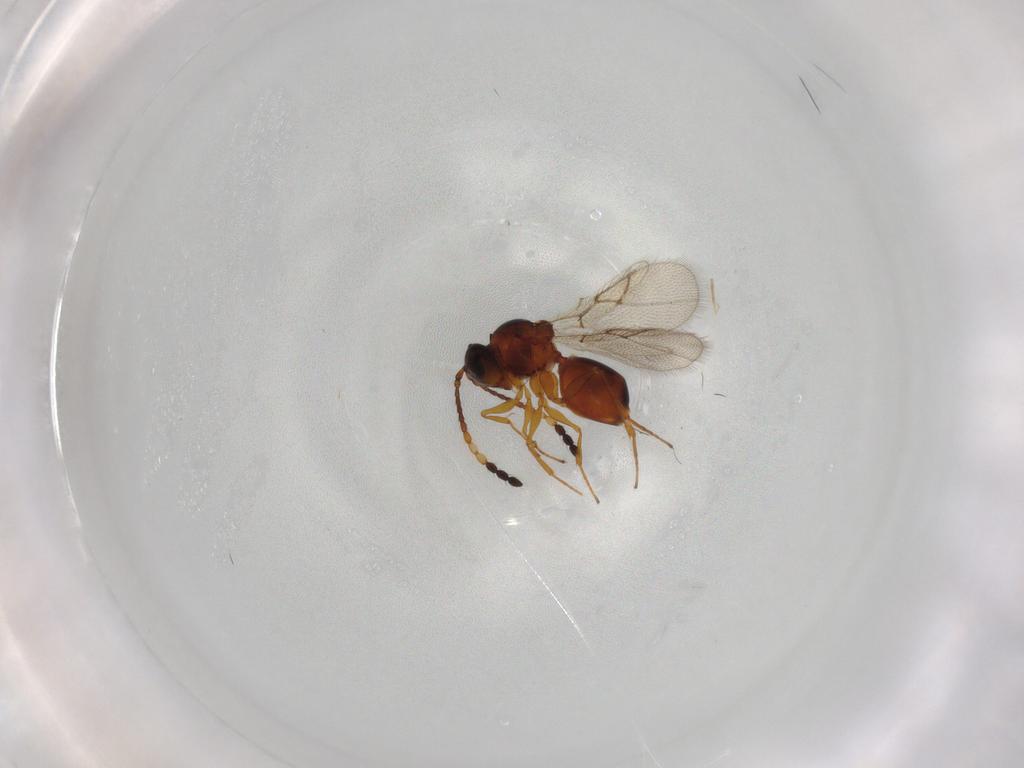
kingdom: Animalia
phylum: Arthropoda
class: Insecta
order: Hymenoptera
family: Figitidae
